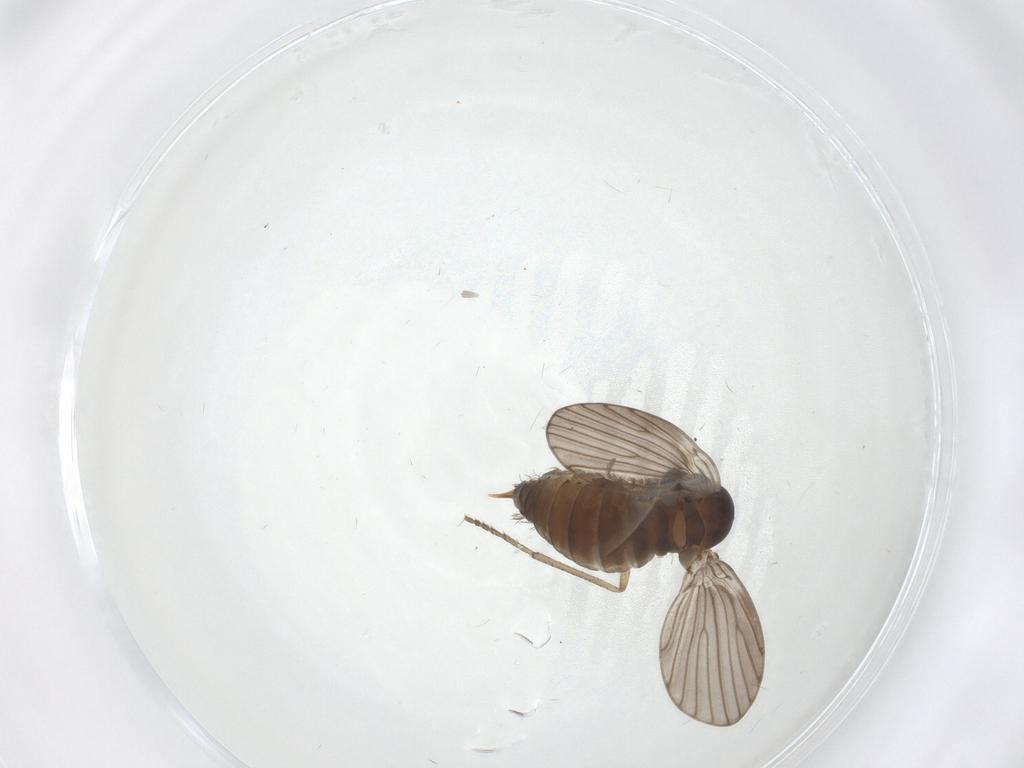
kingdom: Animalia
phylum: Arthropoda
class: Insecta
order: Diptera
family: Psychodidae
